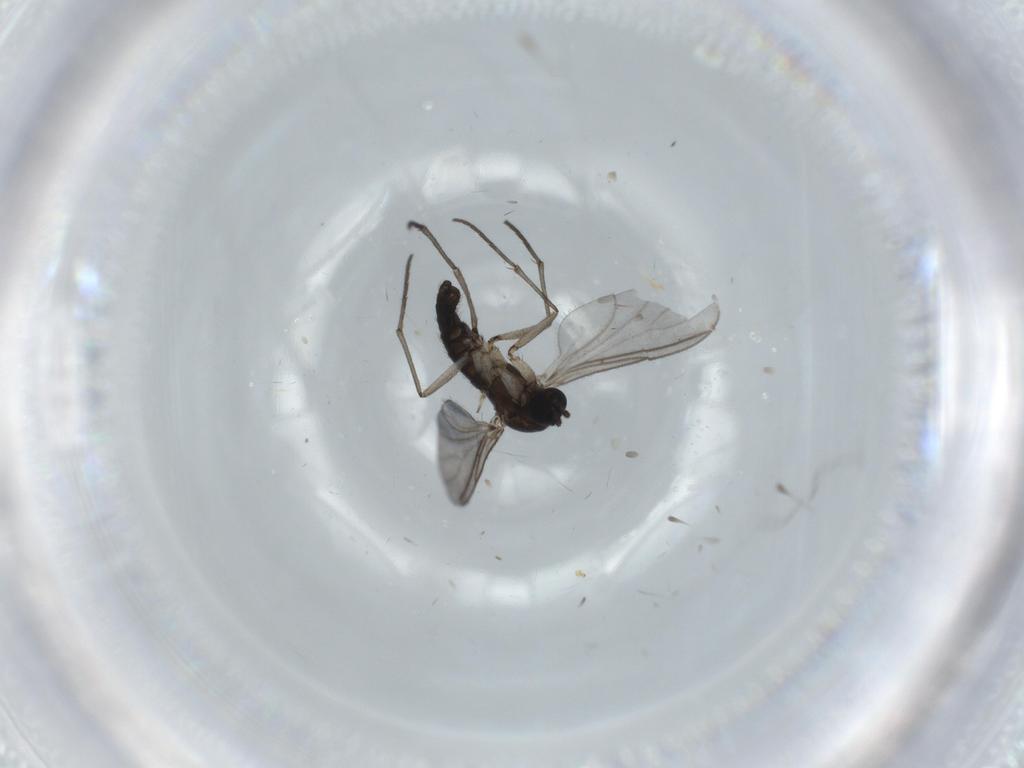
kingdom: Animalia
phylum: Arthropoda
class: Insecta
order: Diptera
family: Sciaridae
